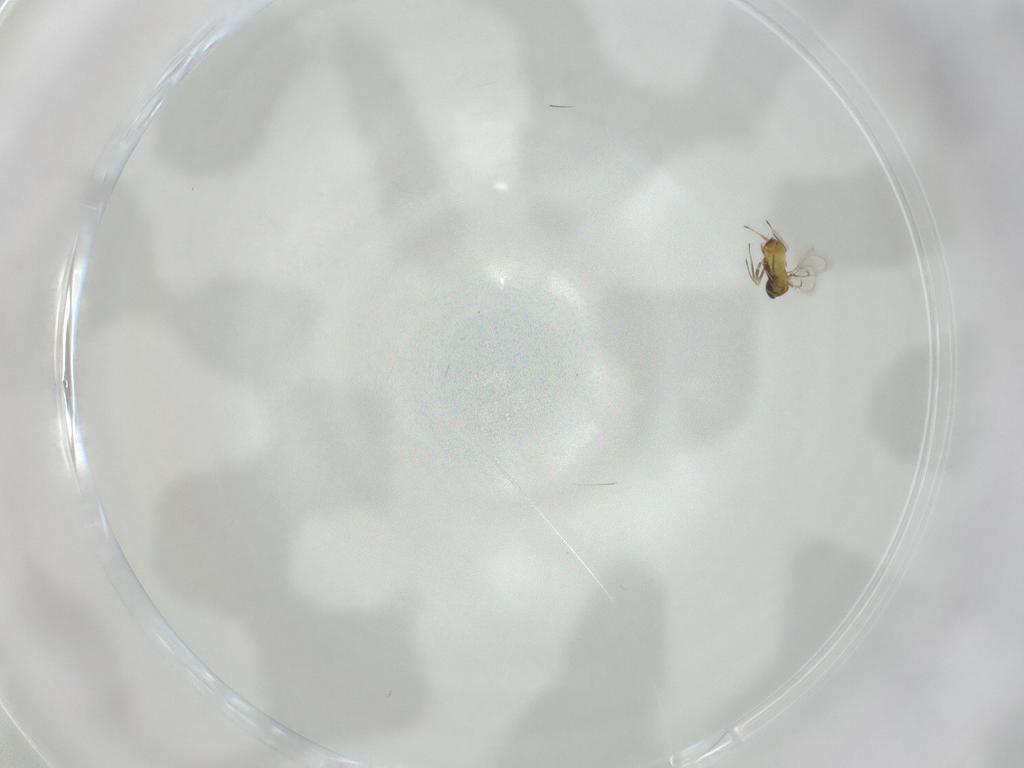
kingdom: Animalia
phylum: Arthropoda
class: Insecta
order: Hymenoptera
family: Trichogrammatidae
